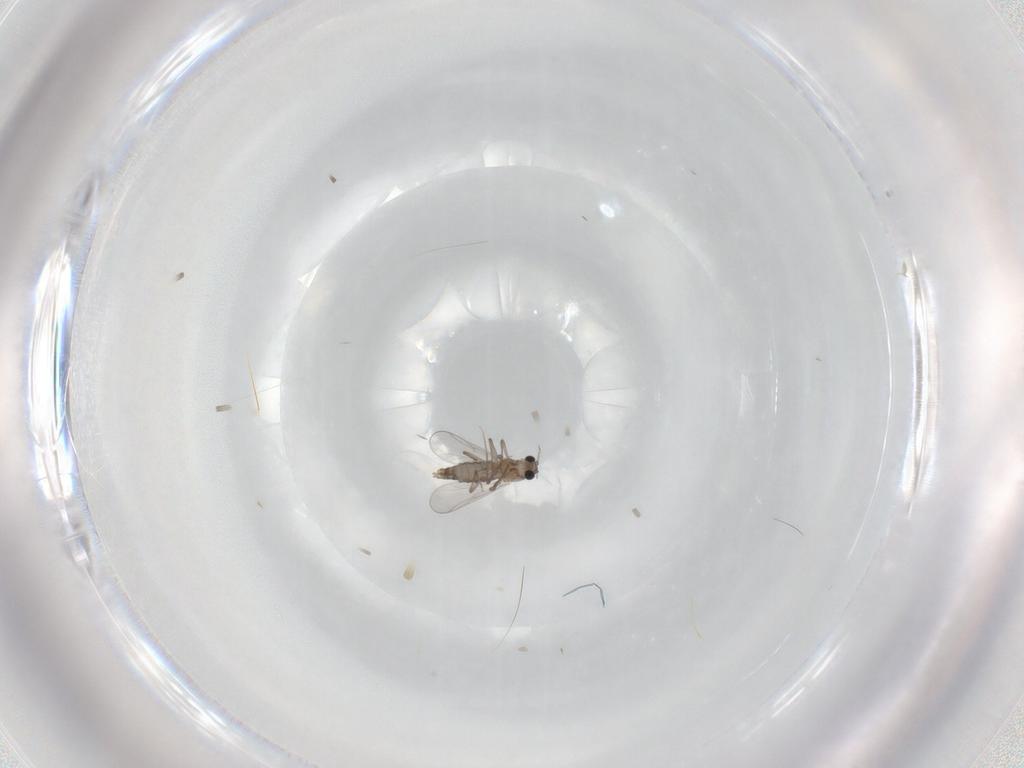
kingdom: Animalia
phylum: Arthropoda
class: Insecta
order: Diptera
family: Chironomidae
